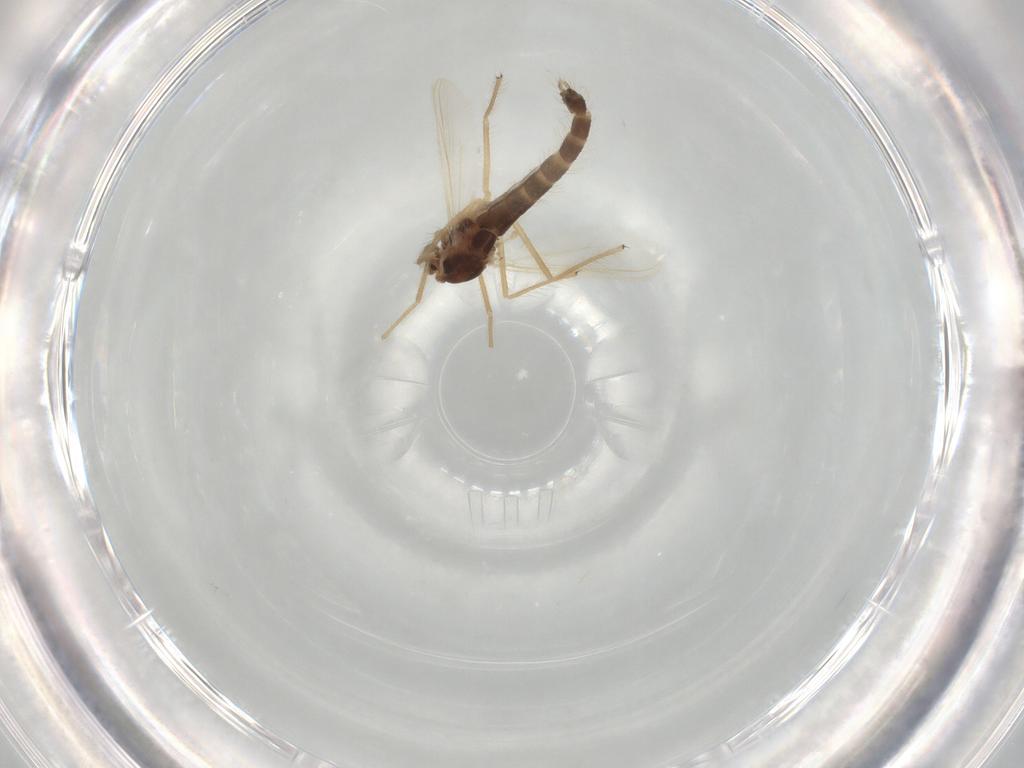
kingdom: Animalia
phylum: Arthropoda
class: Insecta
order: Diptera
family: Chironomidae
